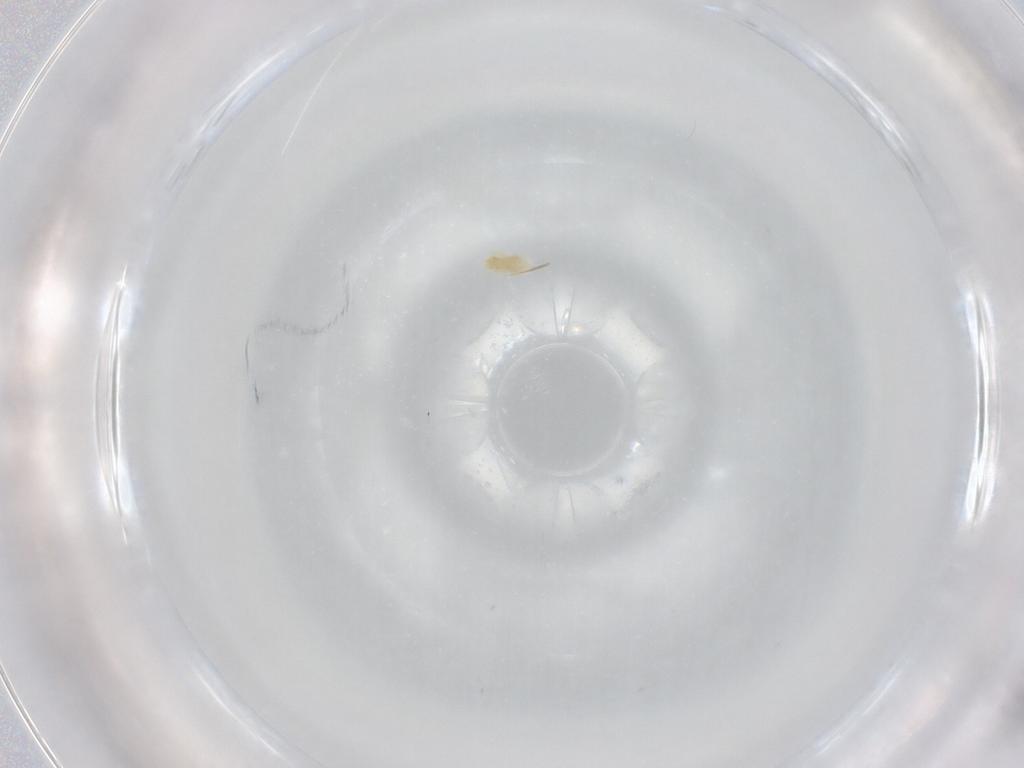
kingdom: Animalia
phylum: Arthropoda
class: Arachnida
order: Trombidiformes
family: Eupodidae
